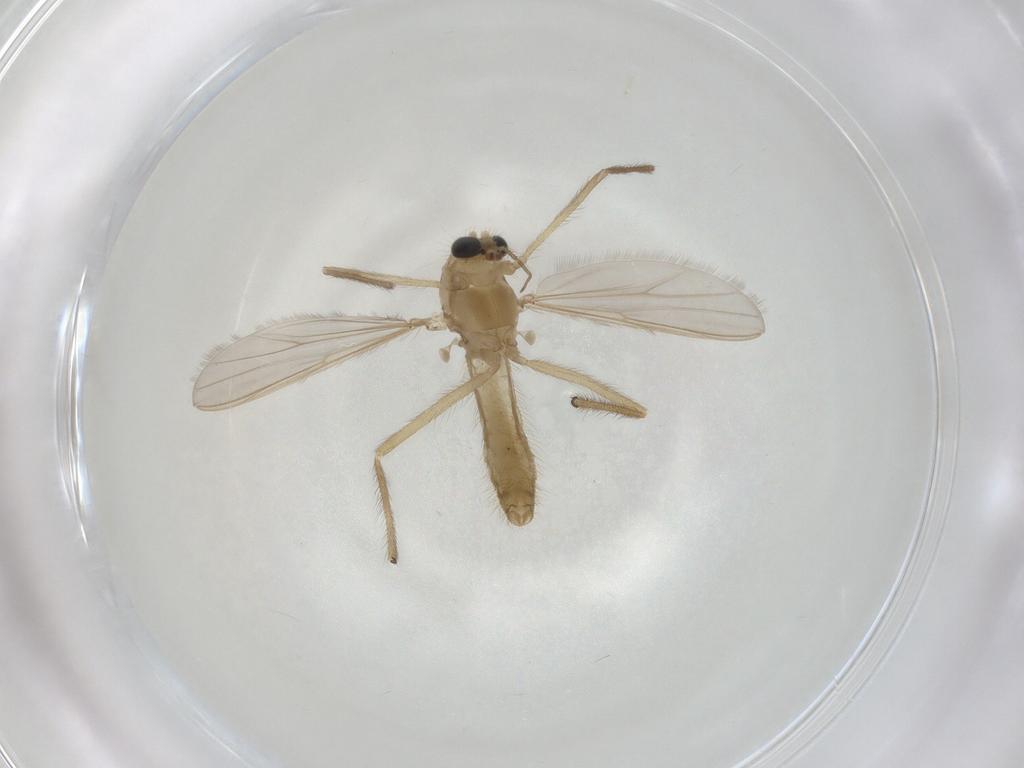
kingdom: Animalia
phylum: Arthropoda
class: Insecta
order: Diptera
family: Chironomidae
